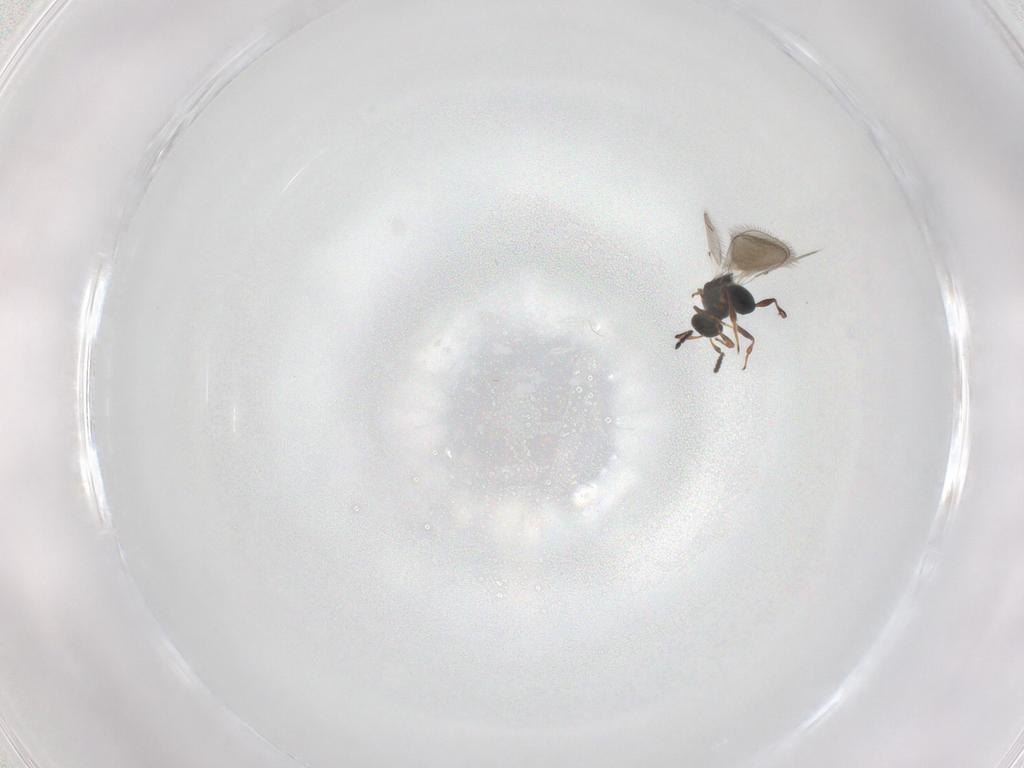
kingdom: Animalia
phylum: Arthropoda
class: Insecta
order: Hymenoptera
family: Platygastridae
